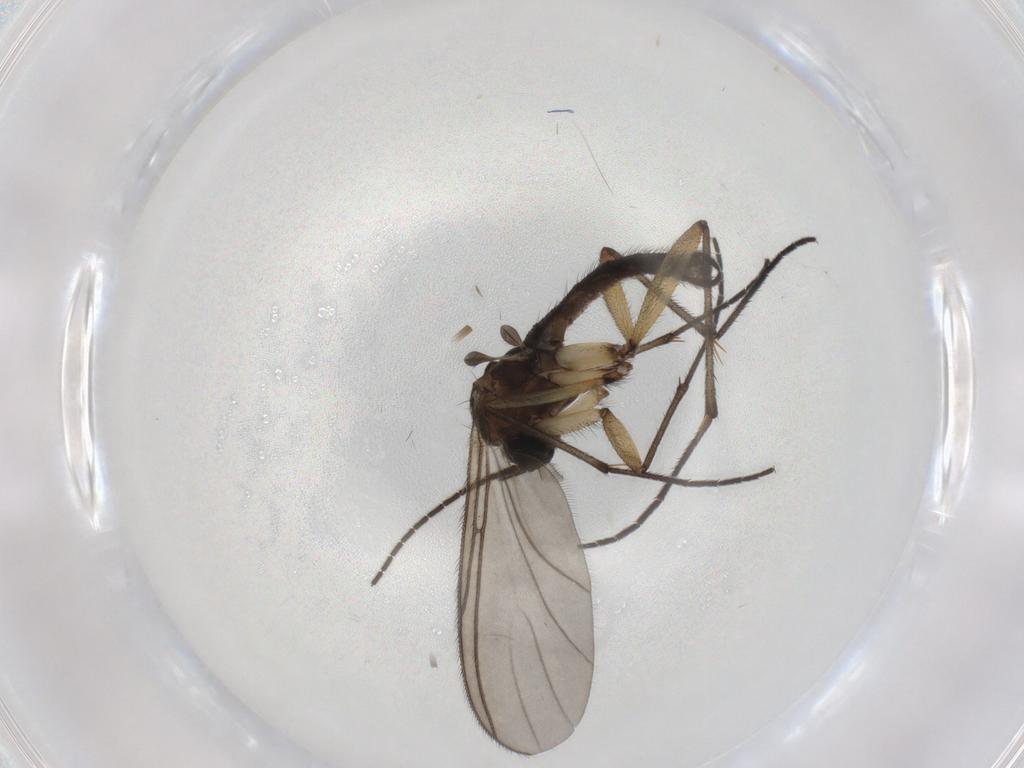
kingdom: Animalia
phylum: Arthropoda
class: Insecta
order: Diptera
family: Sciaridae
